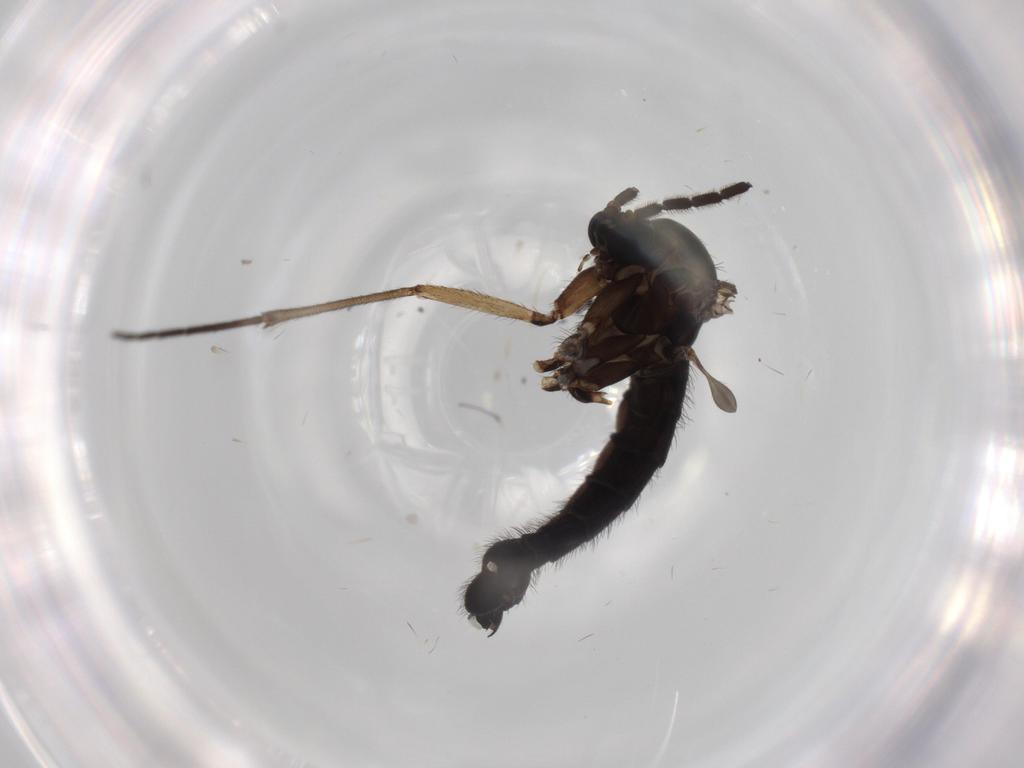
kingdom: Animalia
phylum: Arthropoda
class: Insecta
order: Diptera
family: Sciaridae
